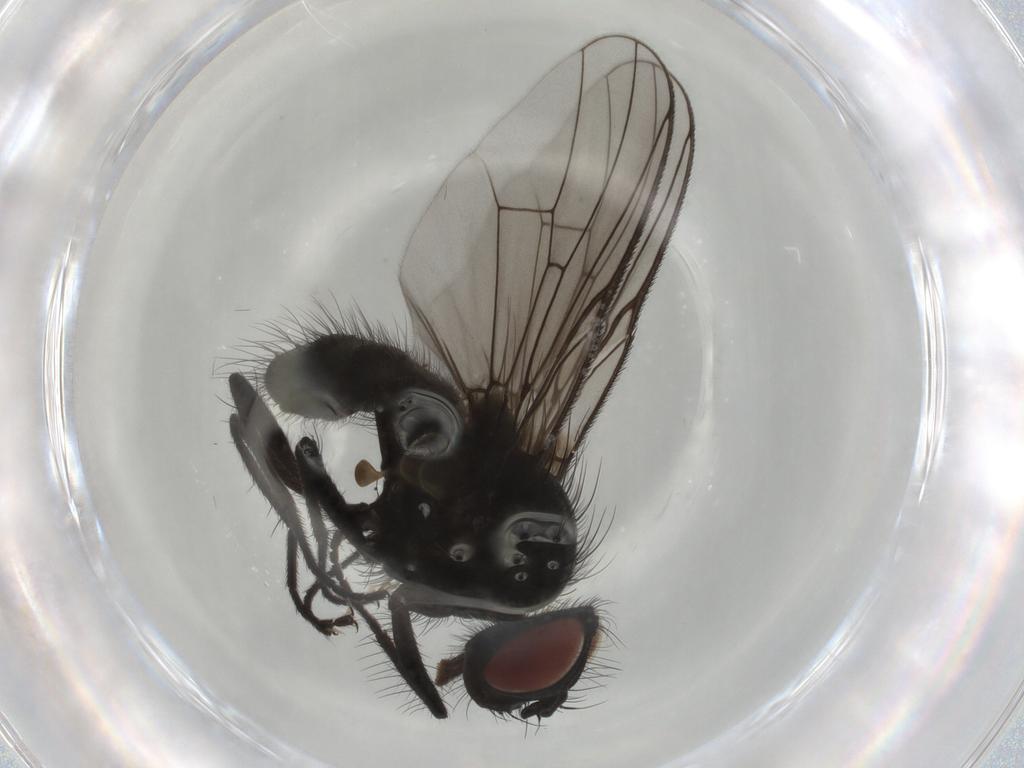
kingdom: Animalia
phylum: Arthropoda
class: Insecta
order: Diptera
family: Muscidae
